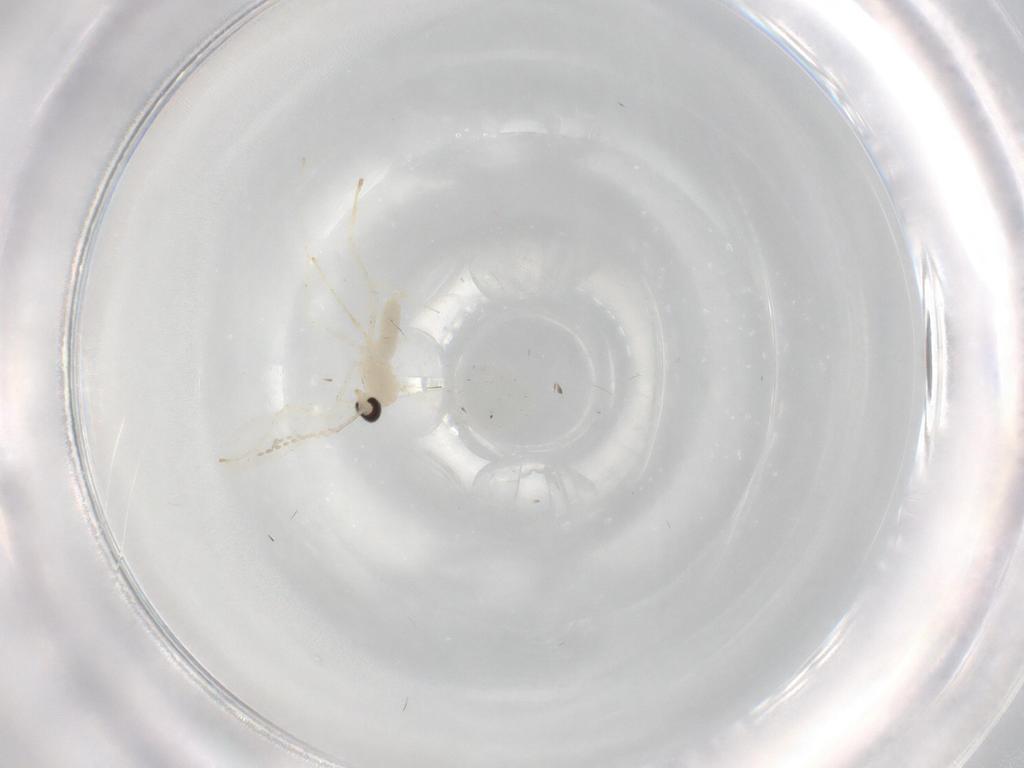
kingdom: Animalia
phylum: Arthropoda
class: Insecta
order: Diptera
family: Cecidomyiidae
